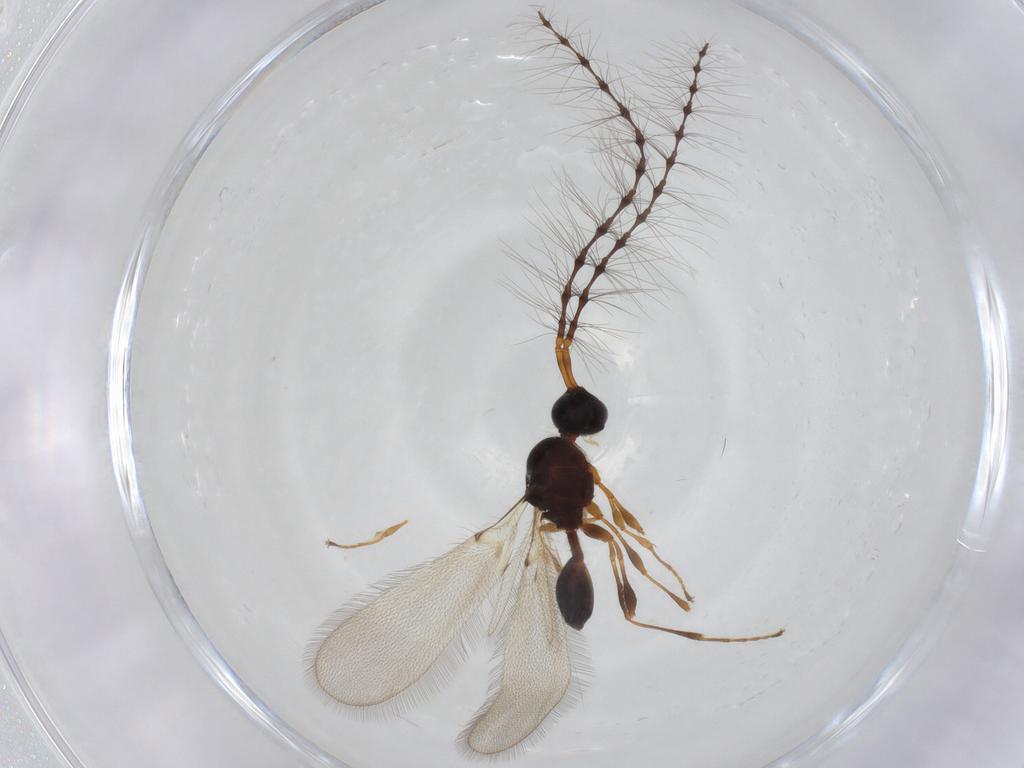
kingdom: Animalia
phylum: Arthropoda
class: Insecta
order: Hymenoptera
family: Diapriidae
